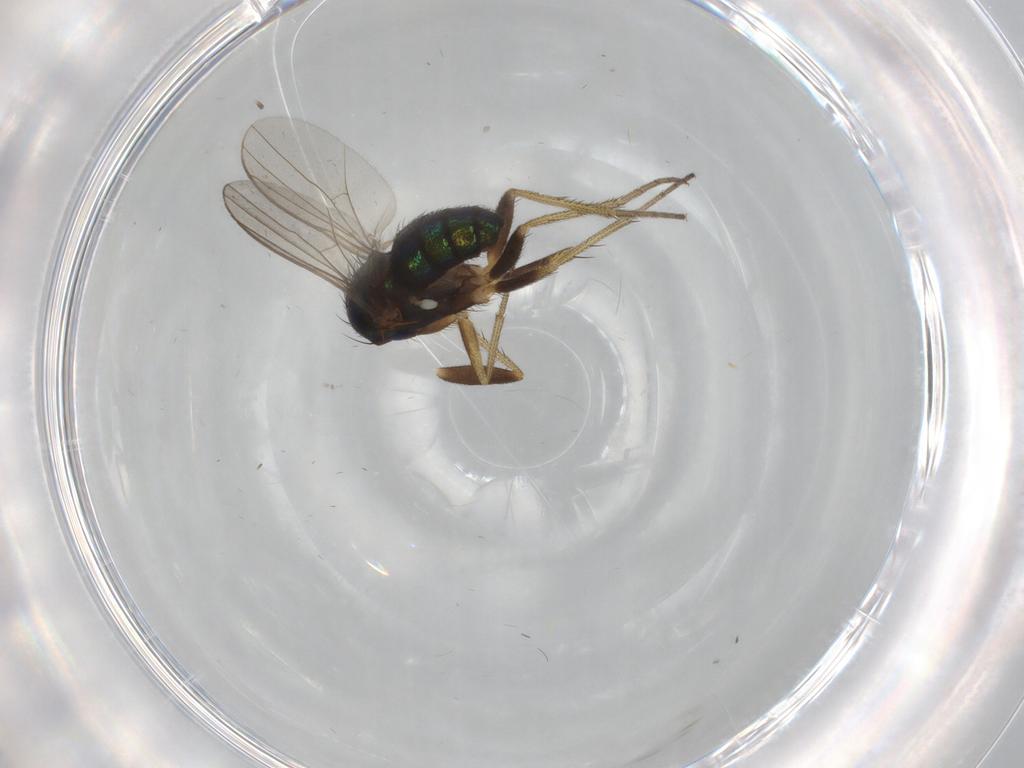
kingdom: Animalia
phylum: Arthropoda
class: Insecta
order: Diptera
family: Dolichopodidae
